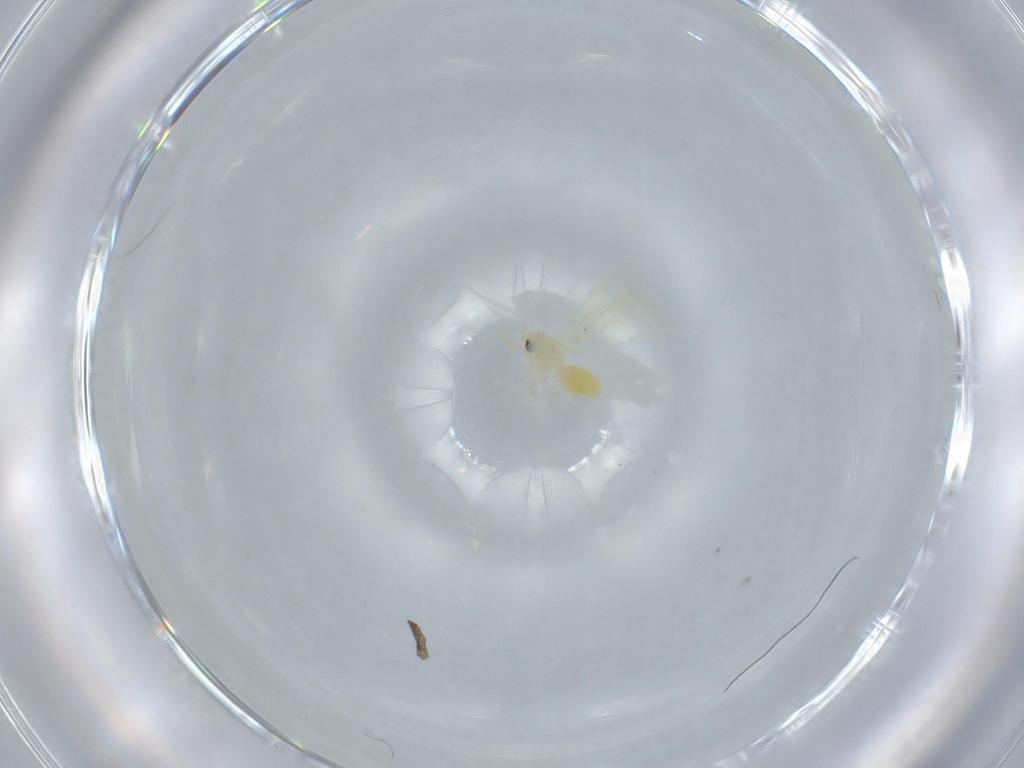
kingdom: Animalia
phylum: Arthropoda
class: Insecta
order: Hemiptera
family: Aleyrodidae
